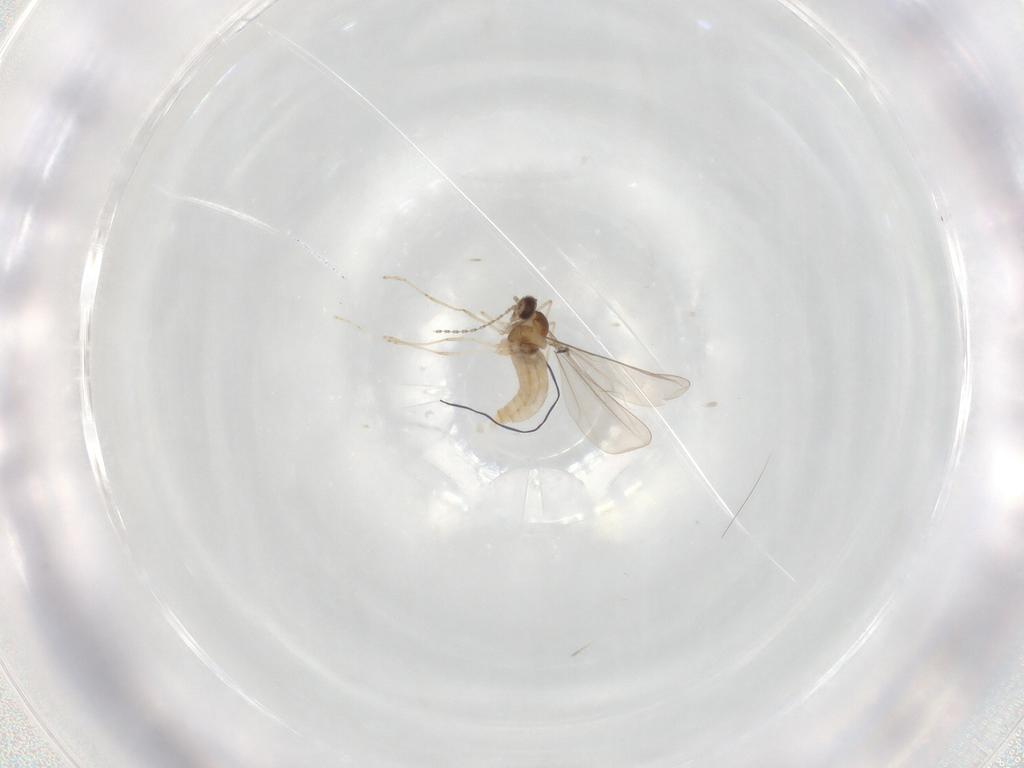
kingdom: Animalia
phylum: Arthropoda
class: Insecta
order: Diptera
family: Cecidomyiidae
